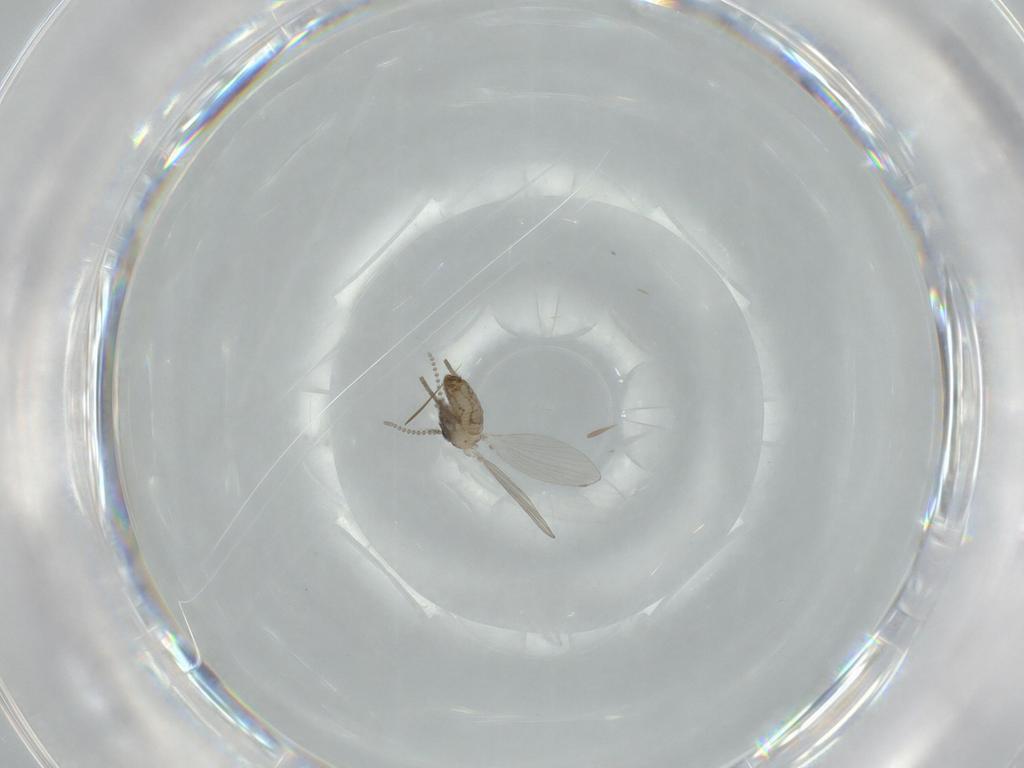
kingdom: Animalia
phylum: Arthropoda
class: Insecta
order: Diptera
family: Psychodidae
